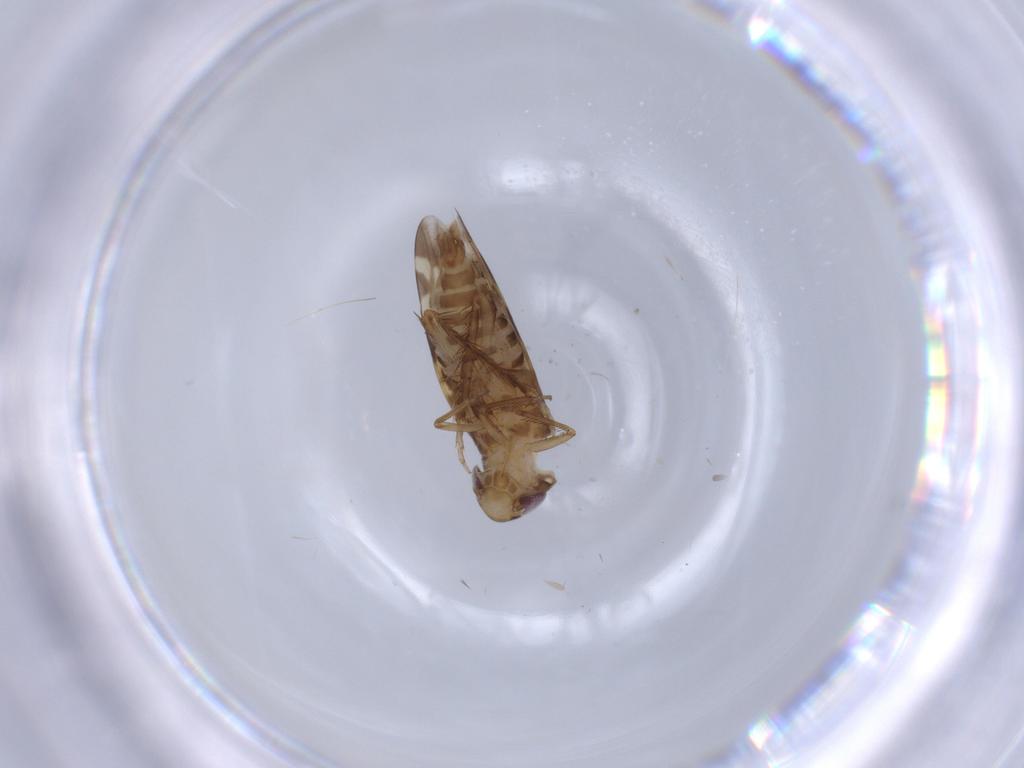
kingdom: Animalia
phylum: Arthropoda
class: Insecta
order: Hemiptera
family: Cicadellidae
